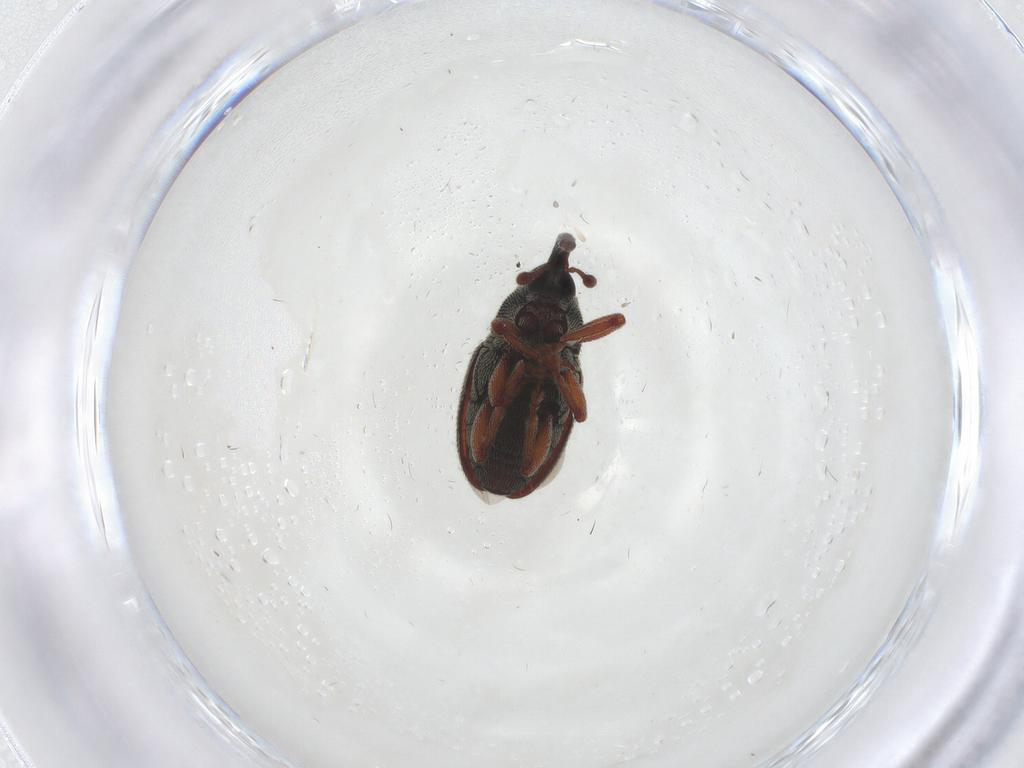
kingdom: Animalia
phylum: Arthropoda
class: Insecta
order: Coleoptera
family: Curculionidae
